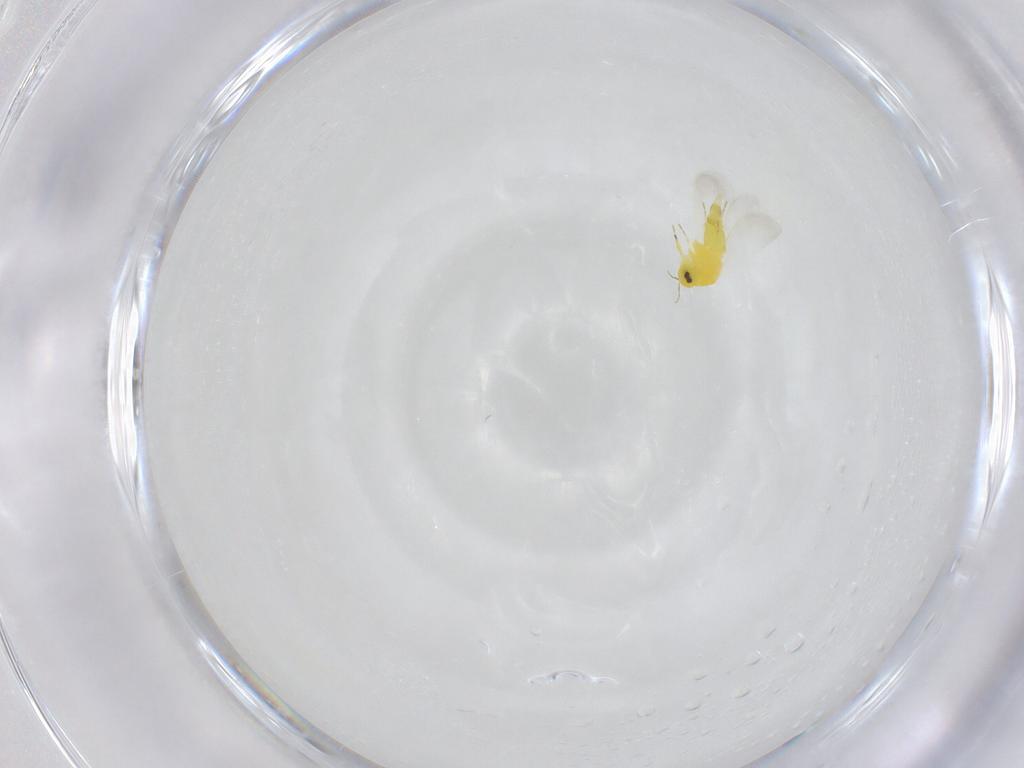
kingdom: Animalia
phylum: Arthropoda
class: Insecta
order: Hemiptera
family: Aleyrodidae
